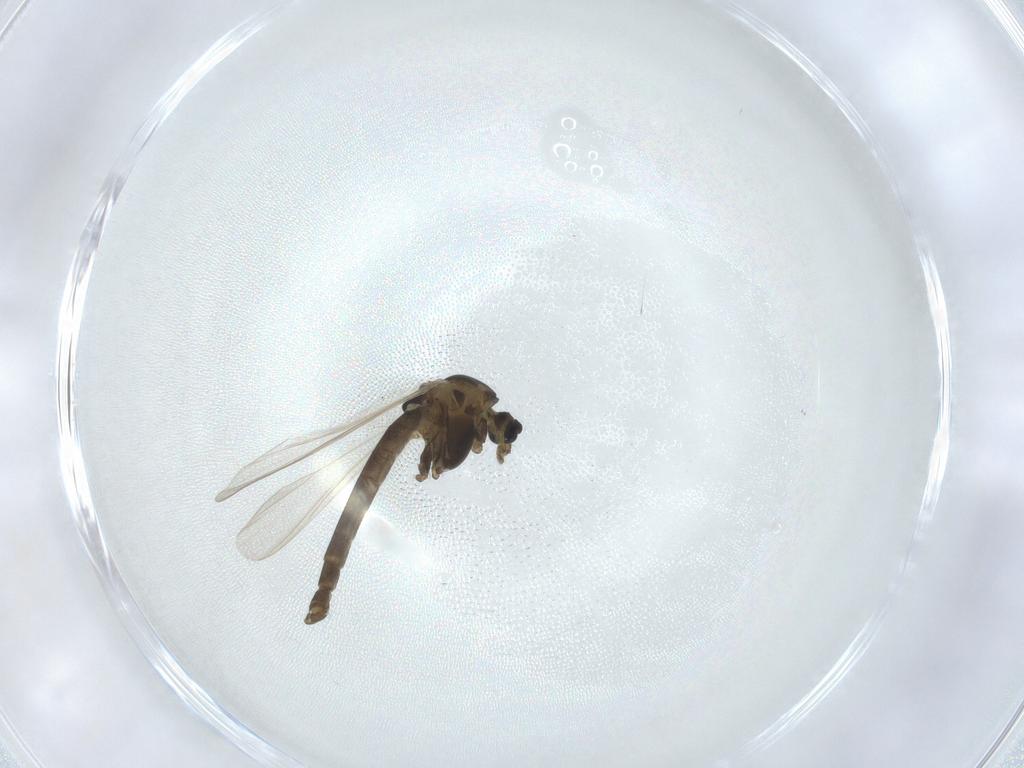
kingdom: Animalia
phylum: Arthropoda
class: Insecta
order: Diptera
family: Chironomidae
